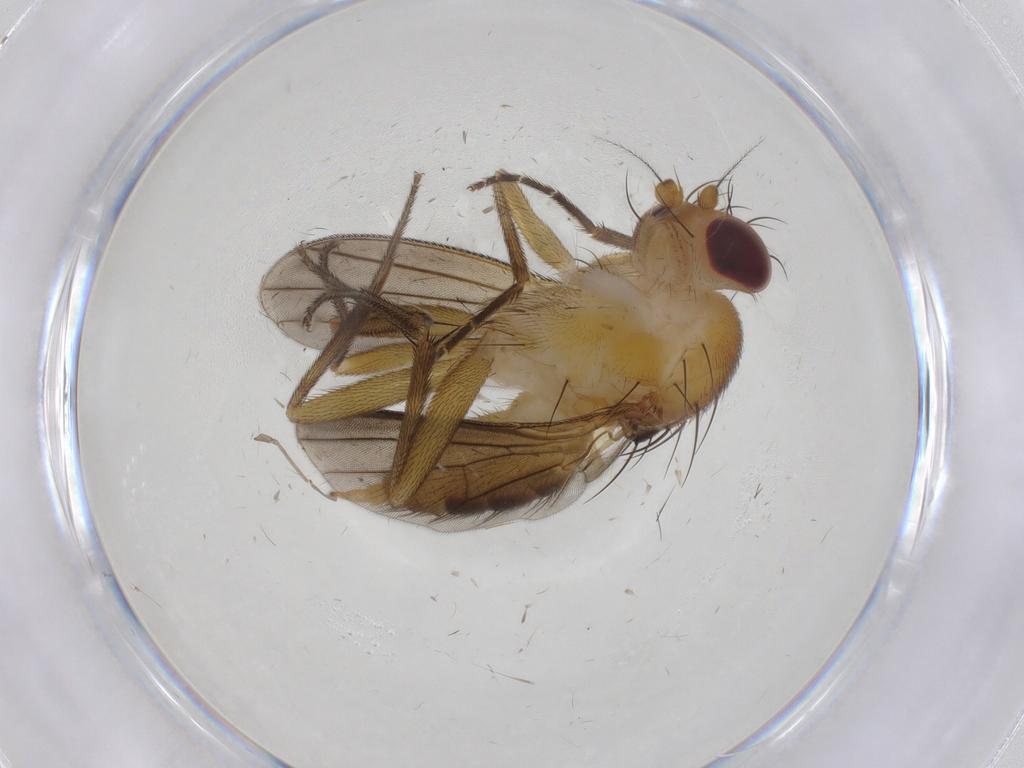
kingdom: Animalia
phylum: Arthropoda
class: Insecta
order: Diptera
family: Clusiidae
